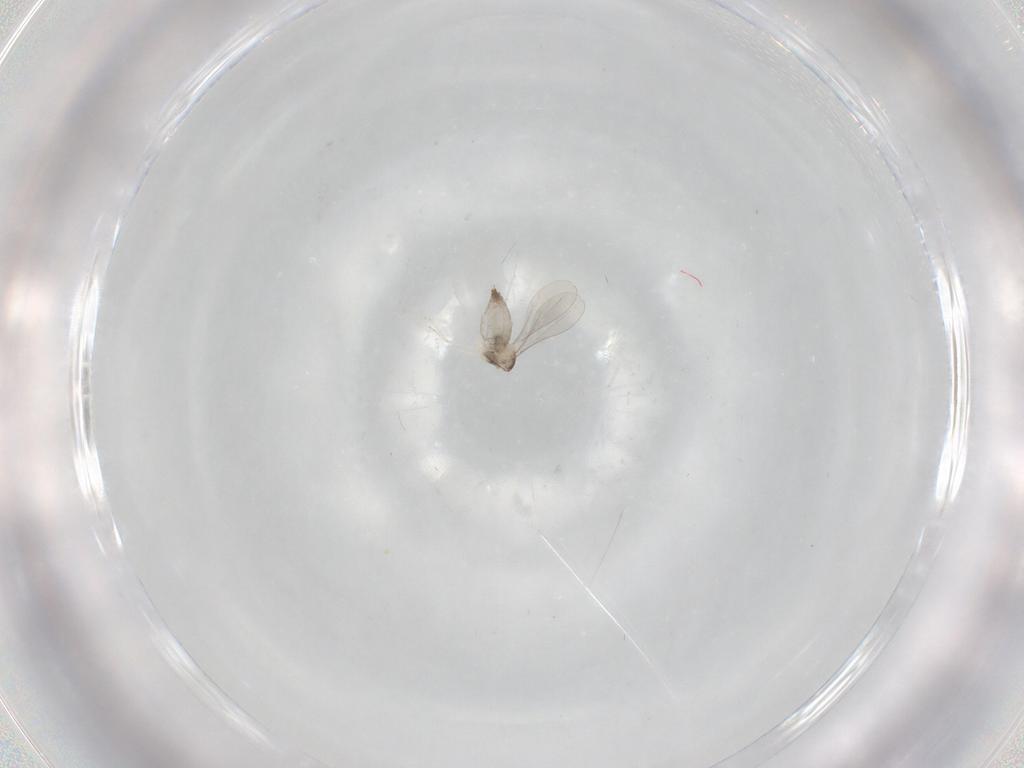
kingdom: Animalia
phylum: Arthropoda
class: Insecta
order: Diptera
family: Cecidomyiidae
